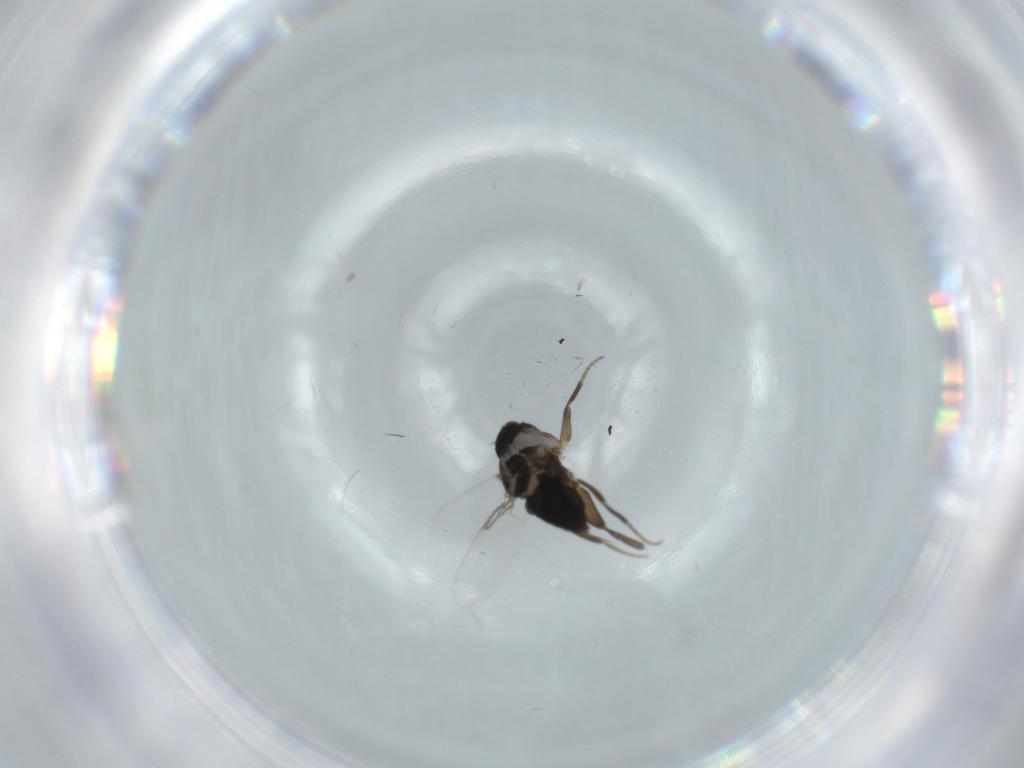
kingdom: Animalia
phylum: Arthropoda
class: Insecta
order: Diptera
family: Phoridae
